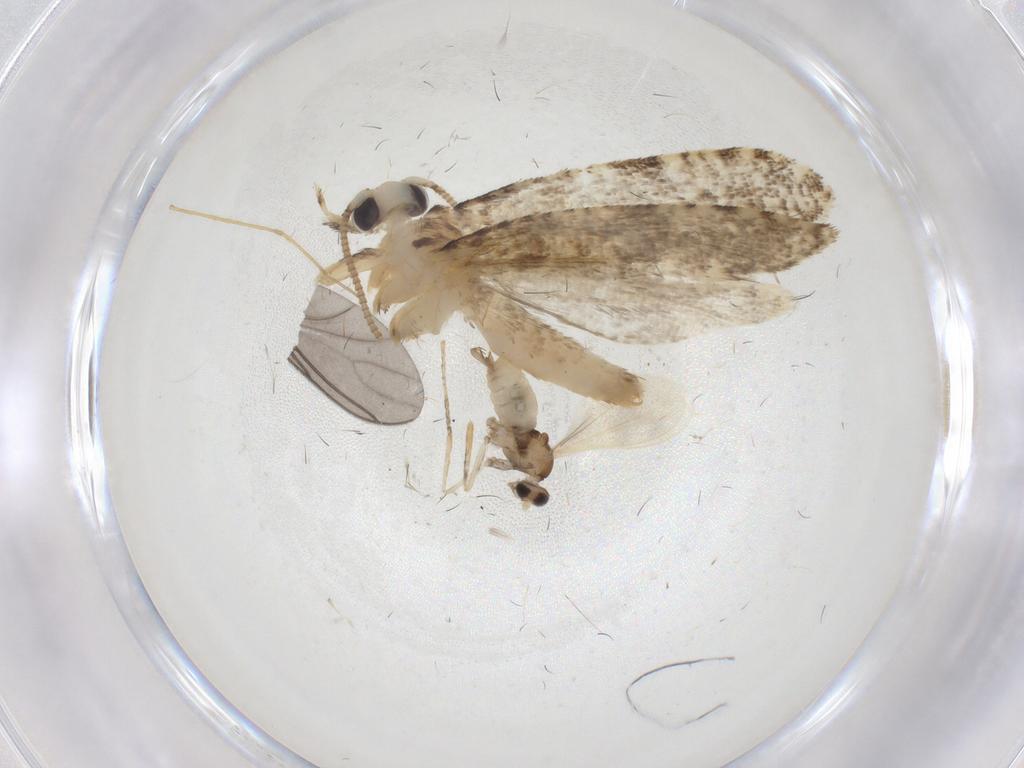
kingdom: Animalia
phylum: Arthropoda
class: Insecta
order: Lepidoptera
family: Tineidae
